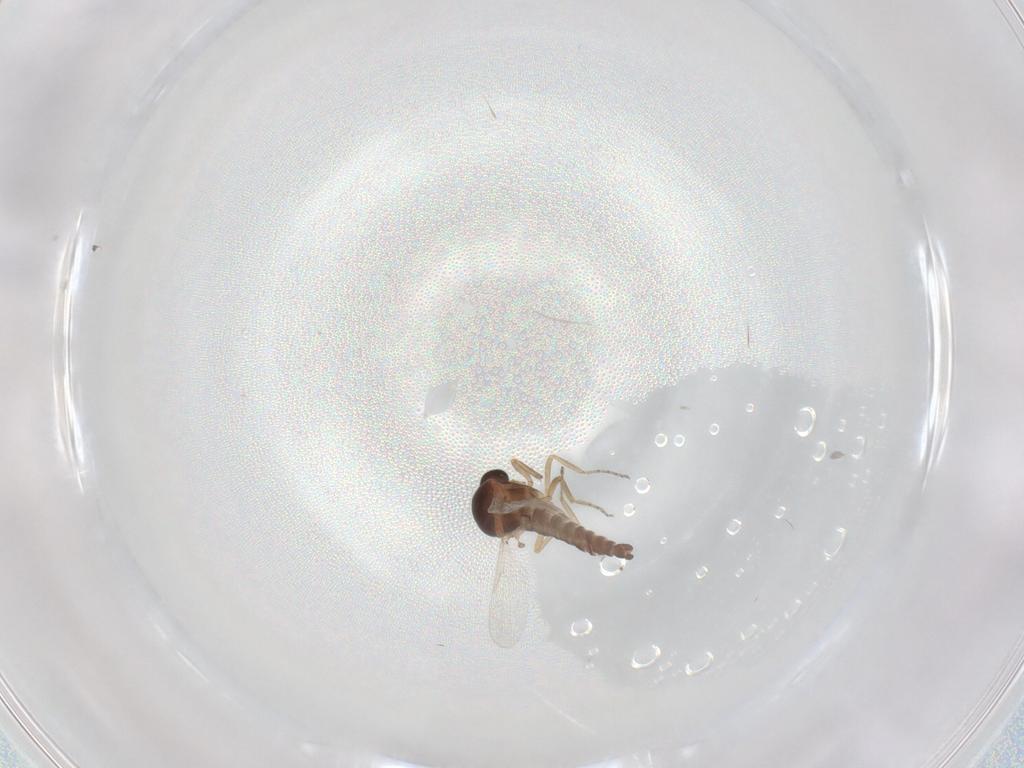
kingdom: Animalia
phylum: Arthropoda
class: Insecta
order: Diptera
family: Ceratopogonidae
